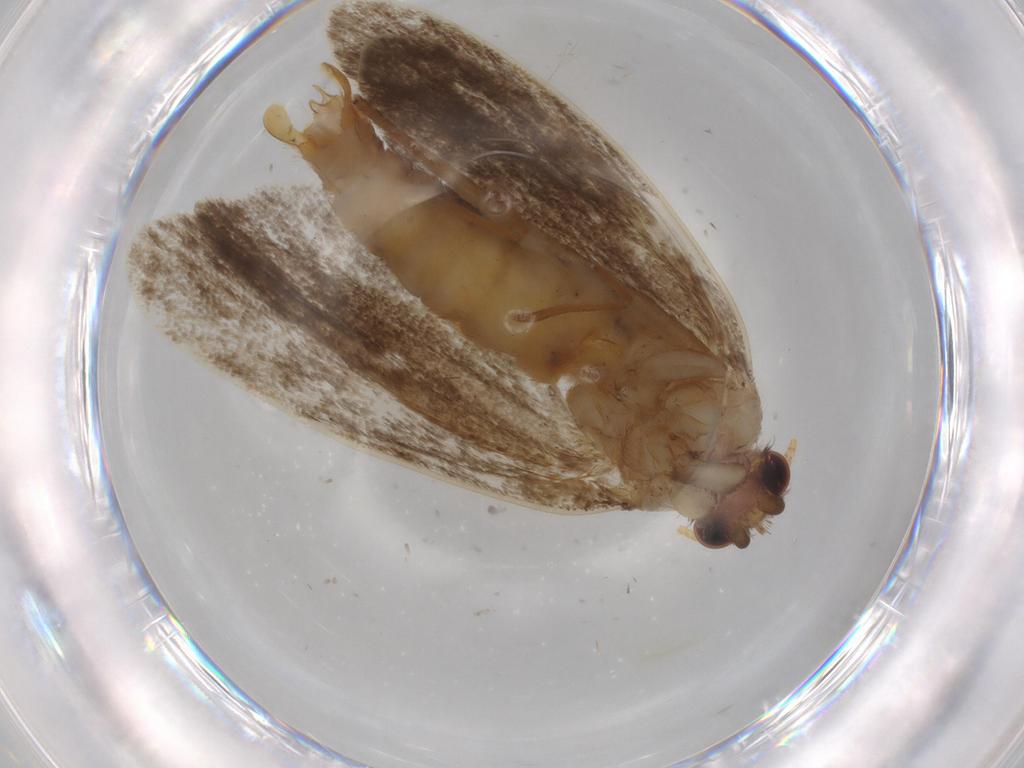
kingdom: Animalia
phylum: Arthropoda
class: Insecta
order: Lepidoptera
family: Tineidae
